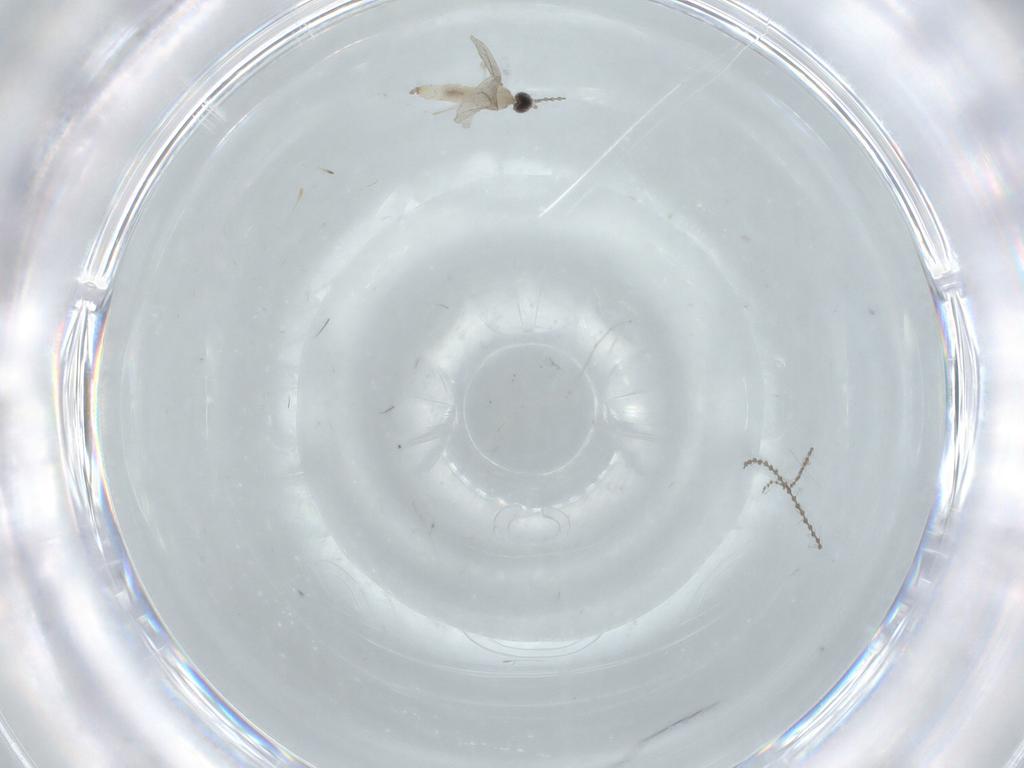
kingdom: Animalia
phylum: Arthropoda
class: Insecta
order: Diptera
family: Cecidomyiidae
